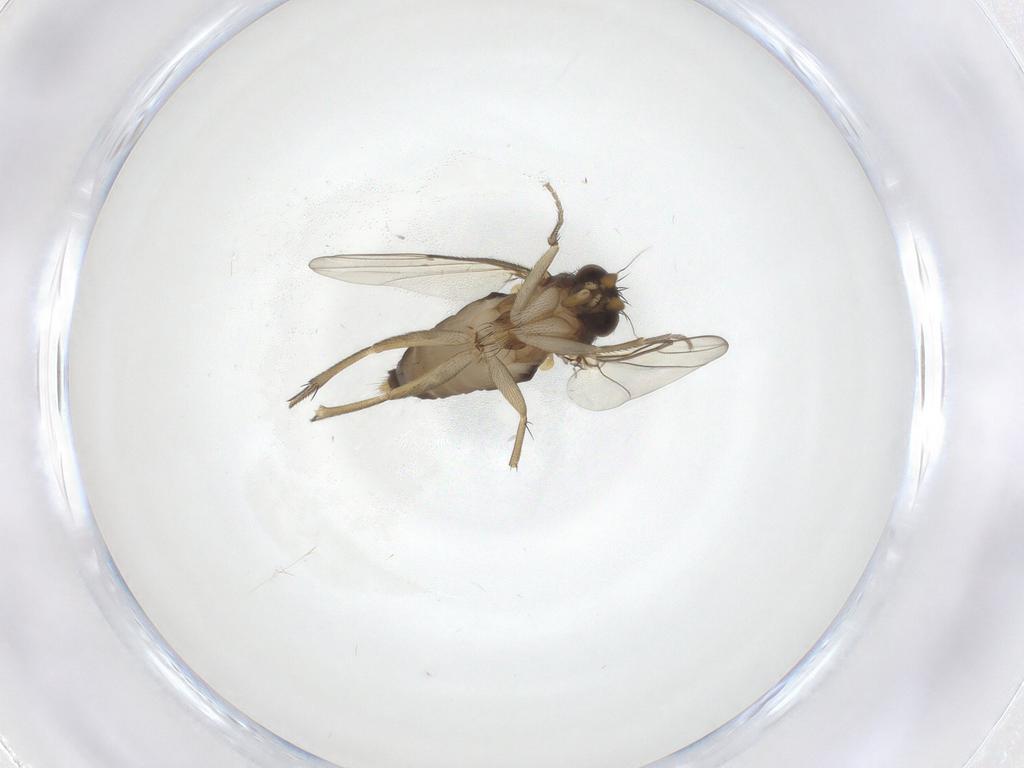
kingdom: Animalia
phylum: Arthropoda
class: Insecta
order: Diptera
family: Phoridae
